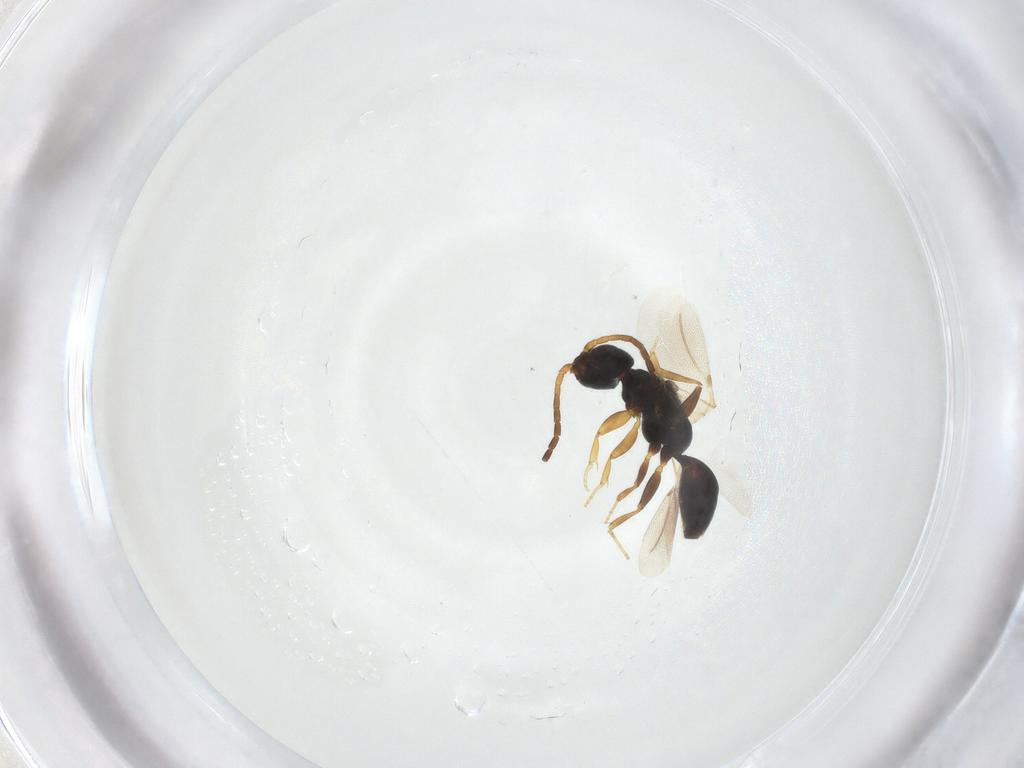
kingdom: Animalia
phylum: Arthropoda
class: Insecta
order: Hymenoptera
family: Bethylidae
